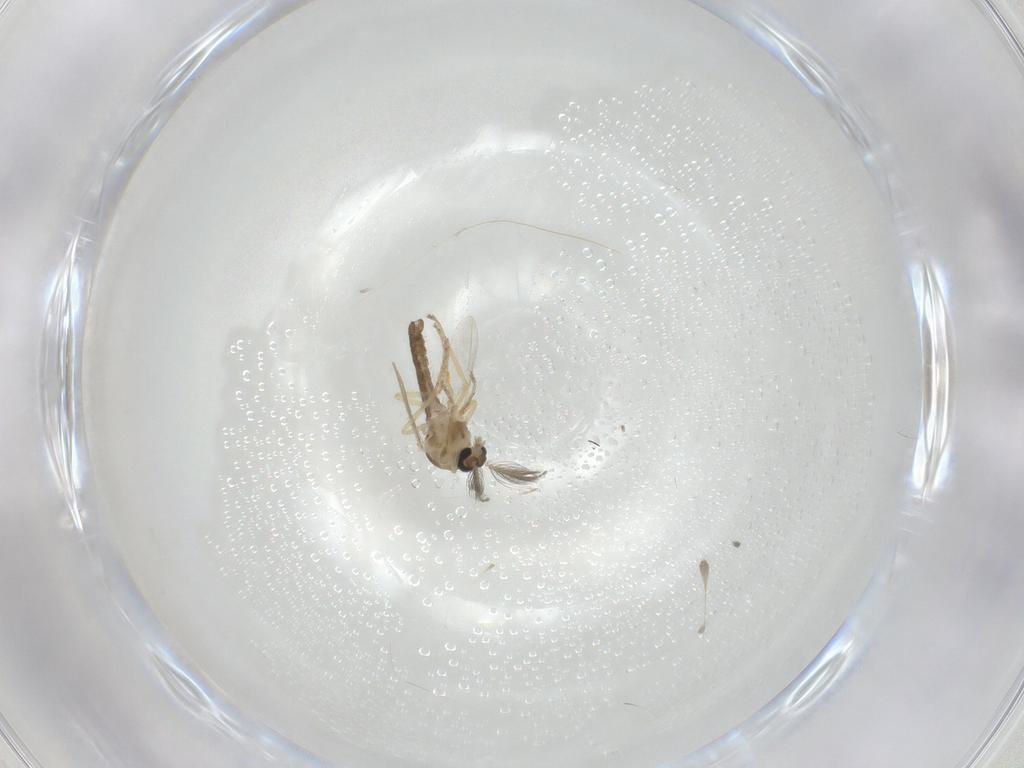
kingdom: Animalia
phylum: Arthropoda
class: Insecta
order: Diptera
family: Ceratopogonidae
